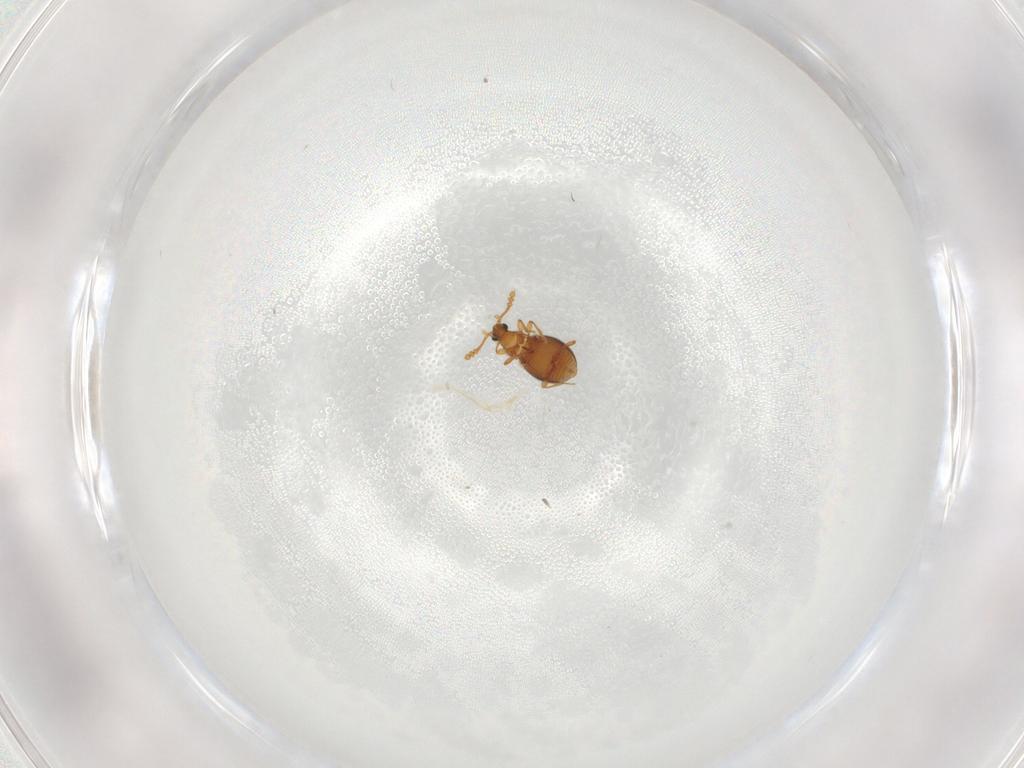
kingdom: Animalia
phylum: Arthropoda
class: Insecta
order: Coleoptera
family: Staphylinidae
